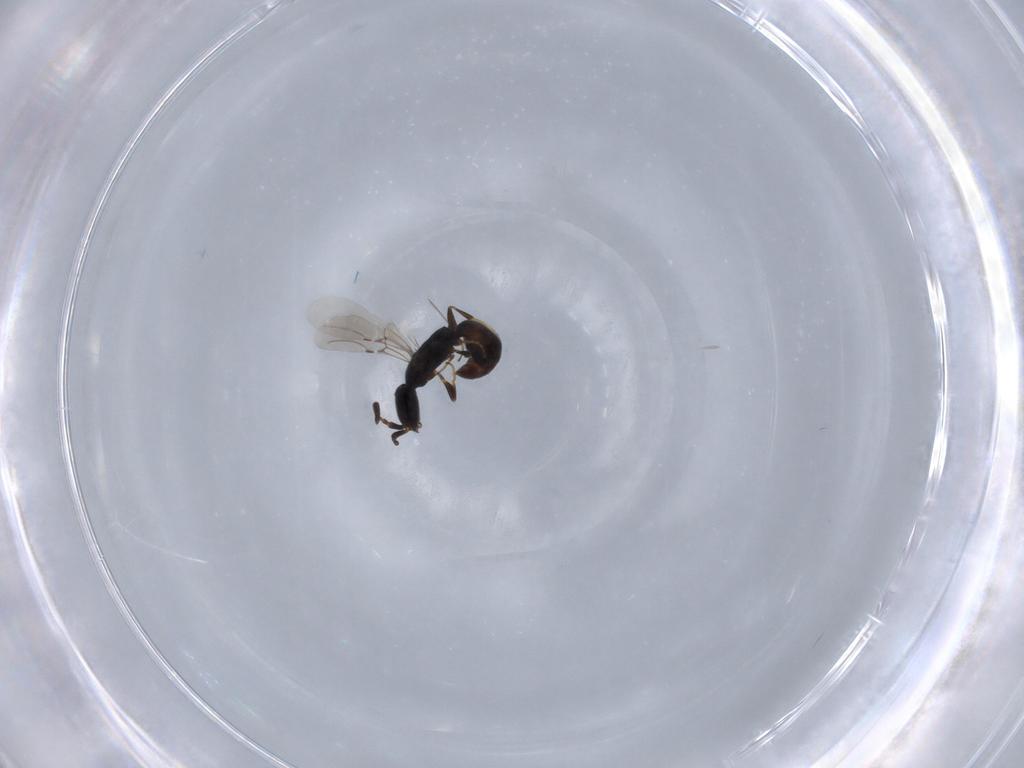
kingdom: Animalia
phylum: Arthropoda
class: Insecta
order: Hymenoptera
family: Bethylidae
